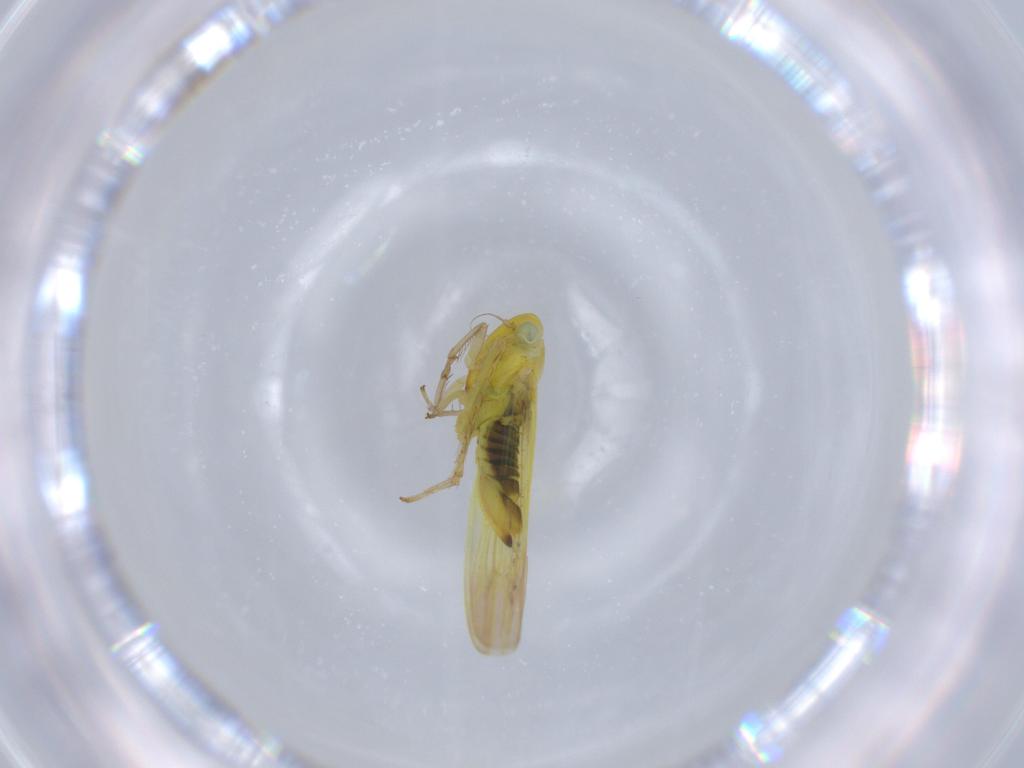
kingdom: Animalia
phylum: Arthropoda
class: Insecta
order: Hemiptera
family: Cicadellidae
